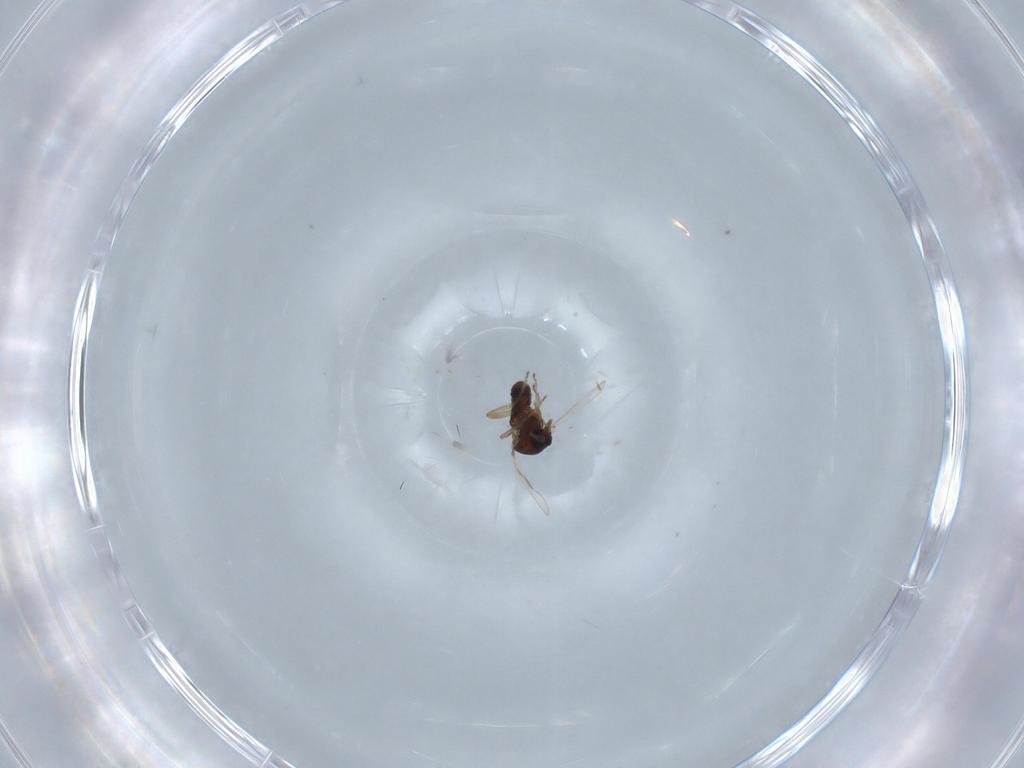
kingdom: Animalia
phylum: Arthropoda
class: Insecta
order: Diptera
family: Ceratopogonidae
